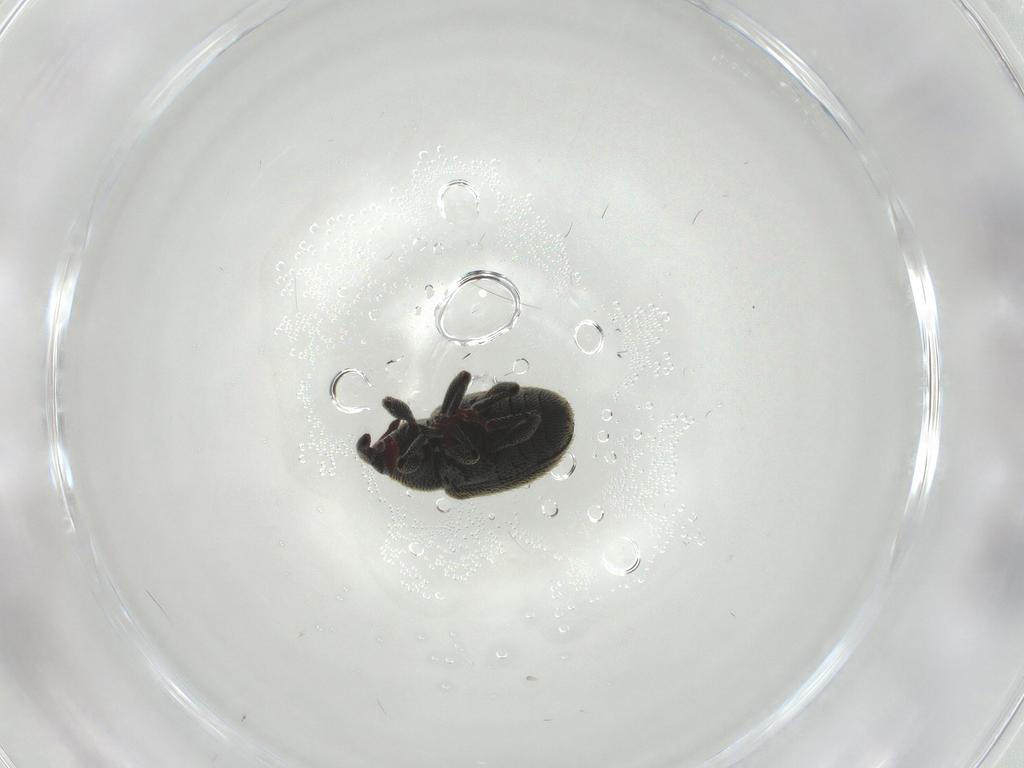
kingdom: Animalia
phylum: Arthropoda
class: Insecta
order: Coleoptera
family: Curculionidae
